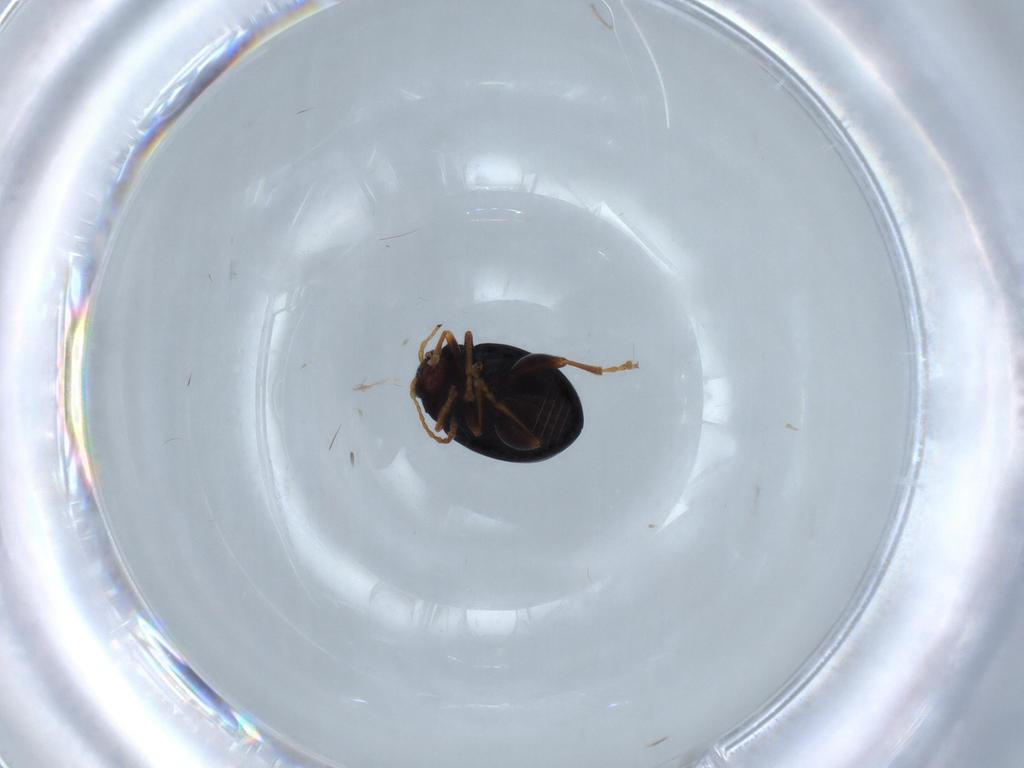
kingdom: Animalia
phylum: Arthropoda
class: Insecta
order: Coleoptera
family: Chrysomelidae
